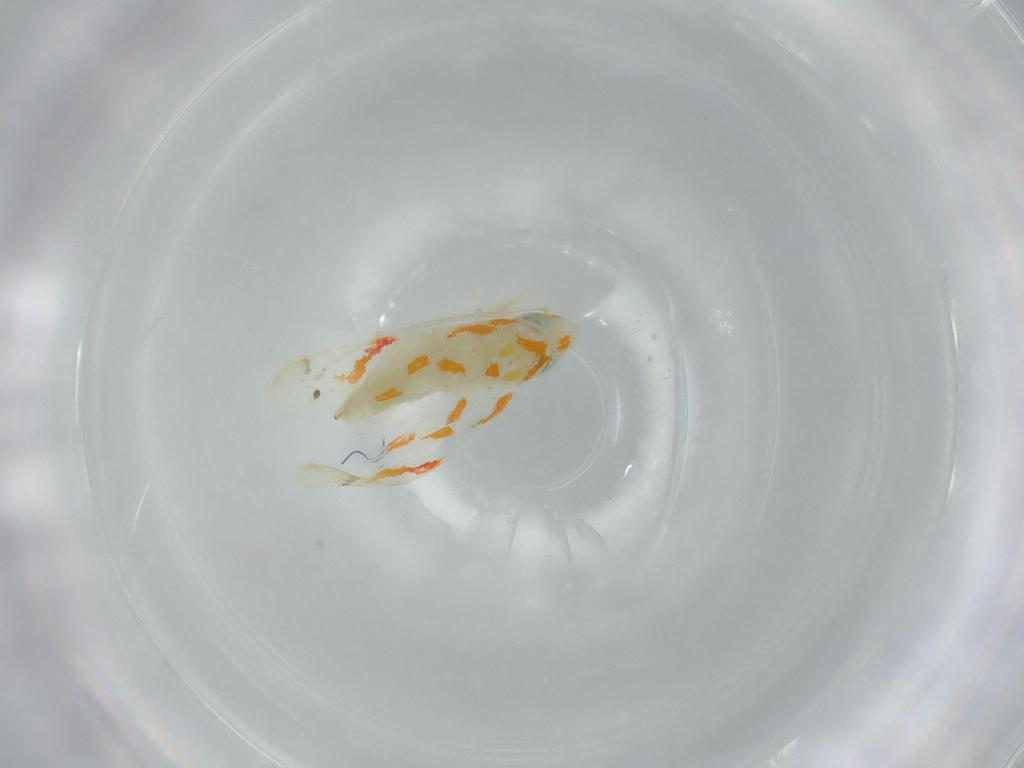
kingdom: Animalia
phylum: Arthropoda
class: Insecta
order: Hemiptera
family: Cicadellidae
